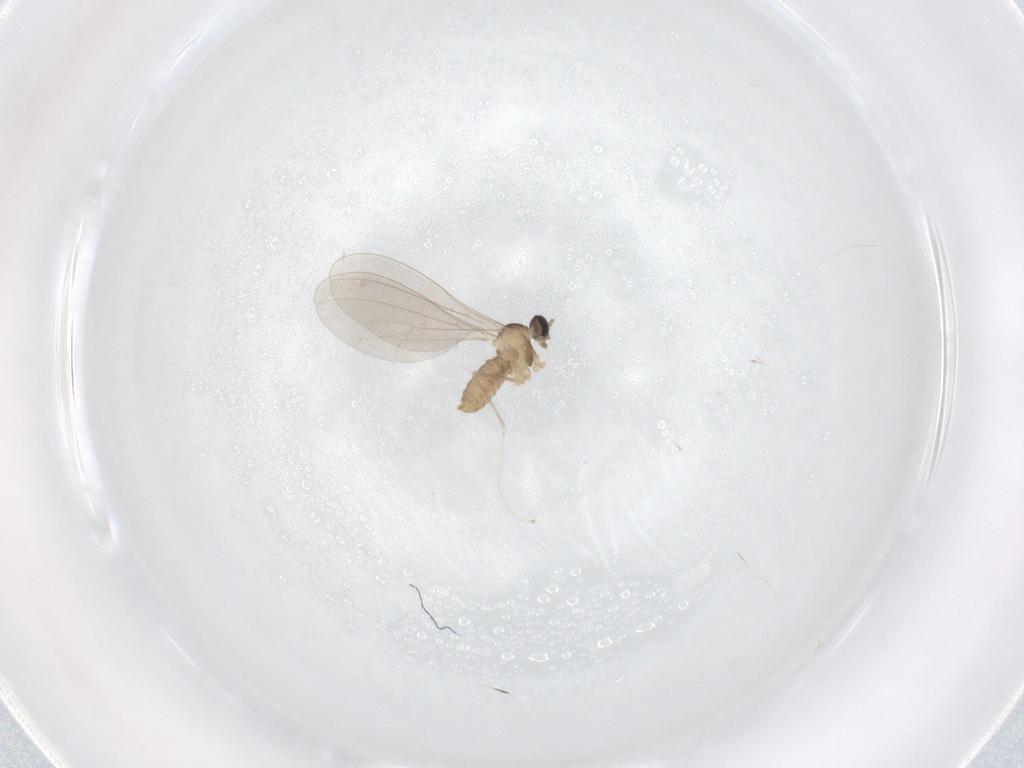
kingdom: Animalia
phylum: Arthropoda
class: Insecta
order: Diptera
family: Cecidomyiidae
